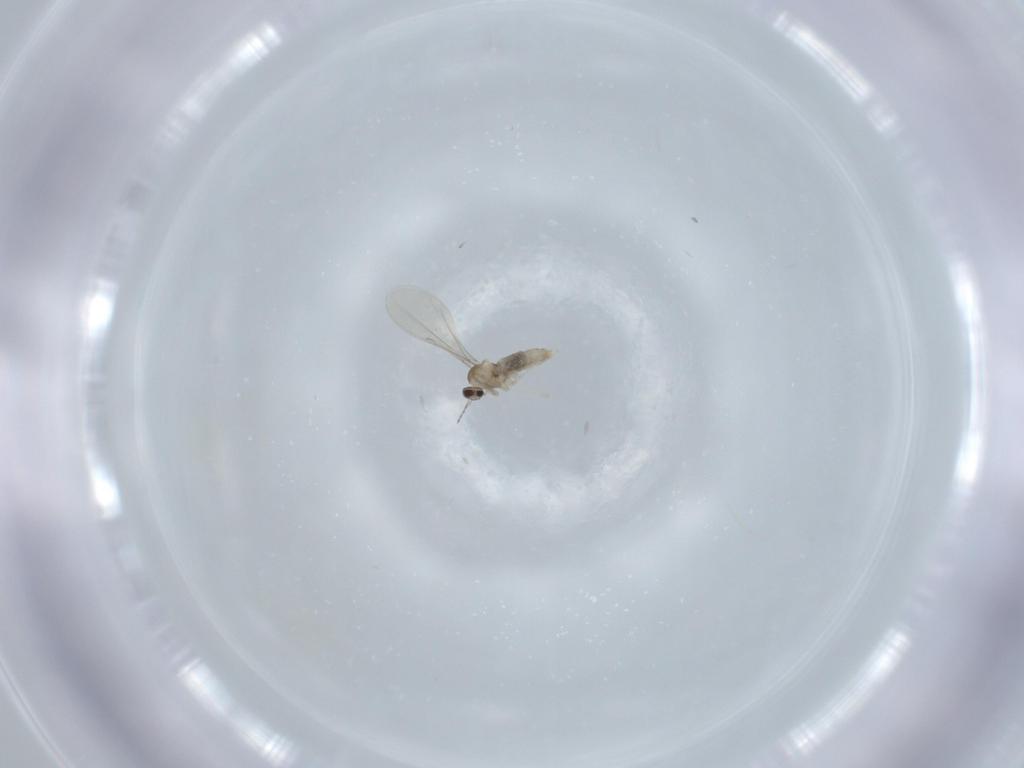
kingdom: Animalia
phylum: Arthropoda
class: Insecta
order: Diptera
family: Cecidomyiidae
